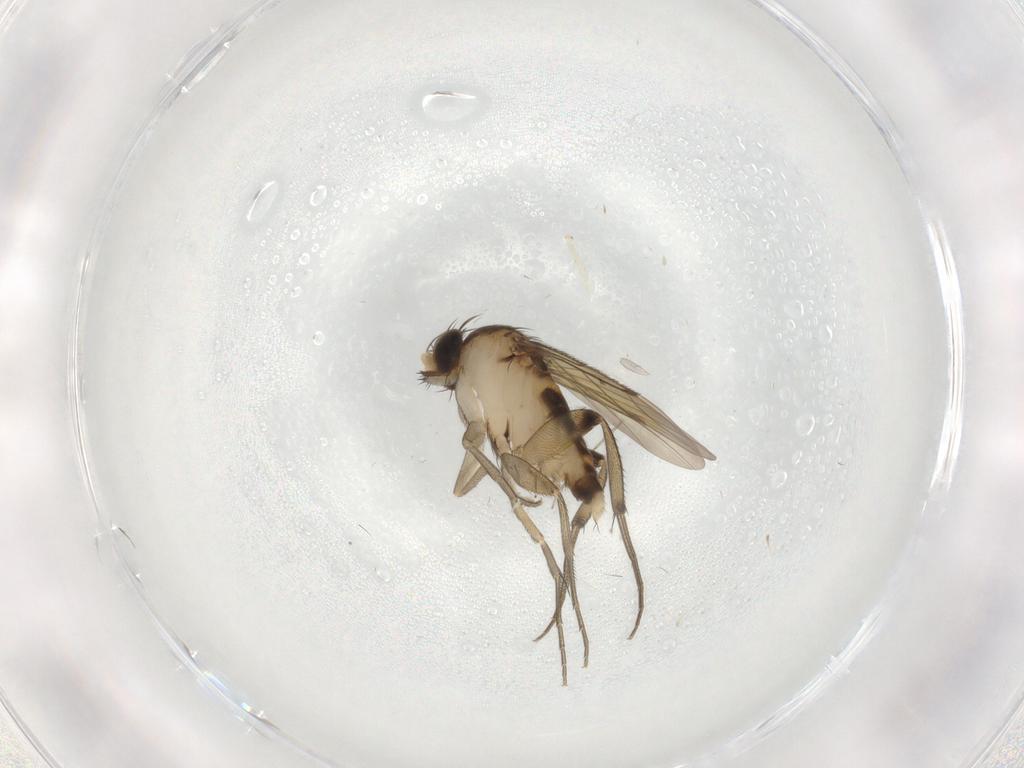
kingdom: Animalia
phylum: Arthropoda
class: Insecta
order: Diptera
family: Phoridae
